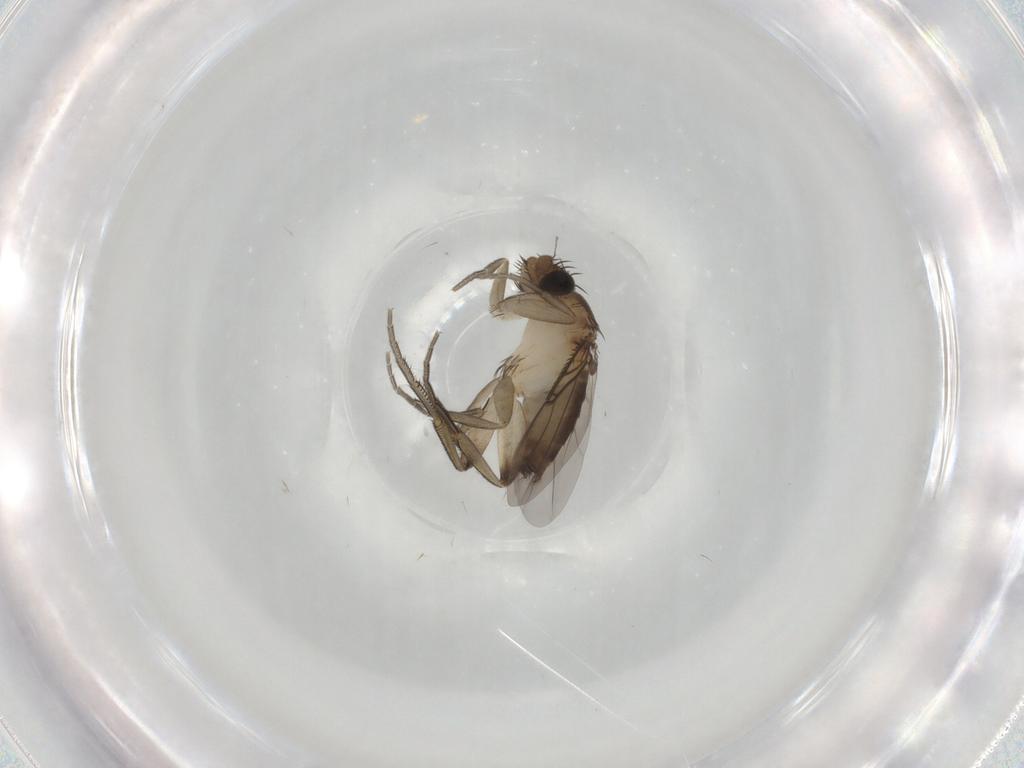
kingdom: Animalia
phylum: Arthropoda
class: Insecta
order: Diptera
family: Phoridae
